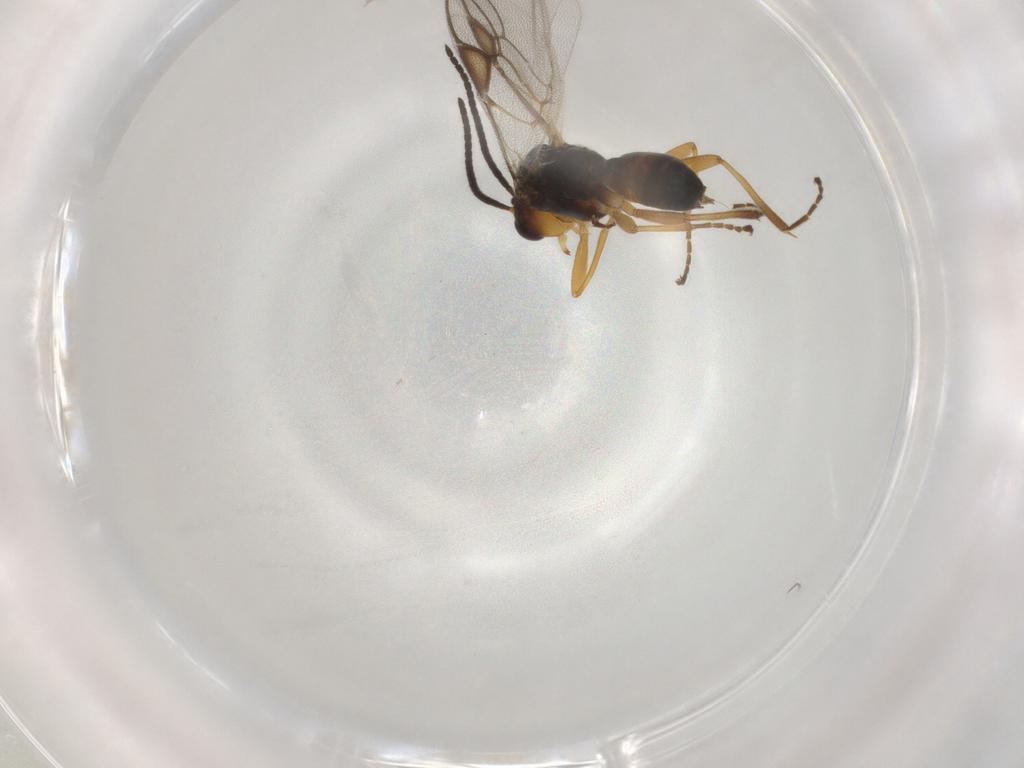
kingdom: Animalia
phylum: Arthropoda
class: Insecta
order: Hymenoptera
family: Braconidae
